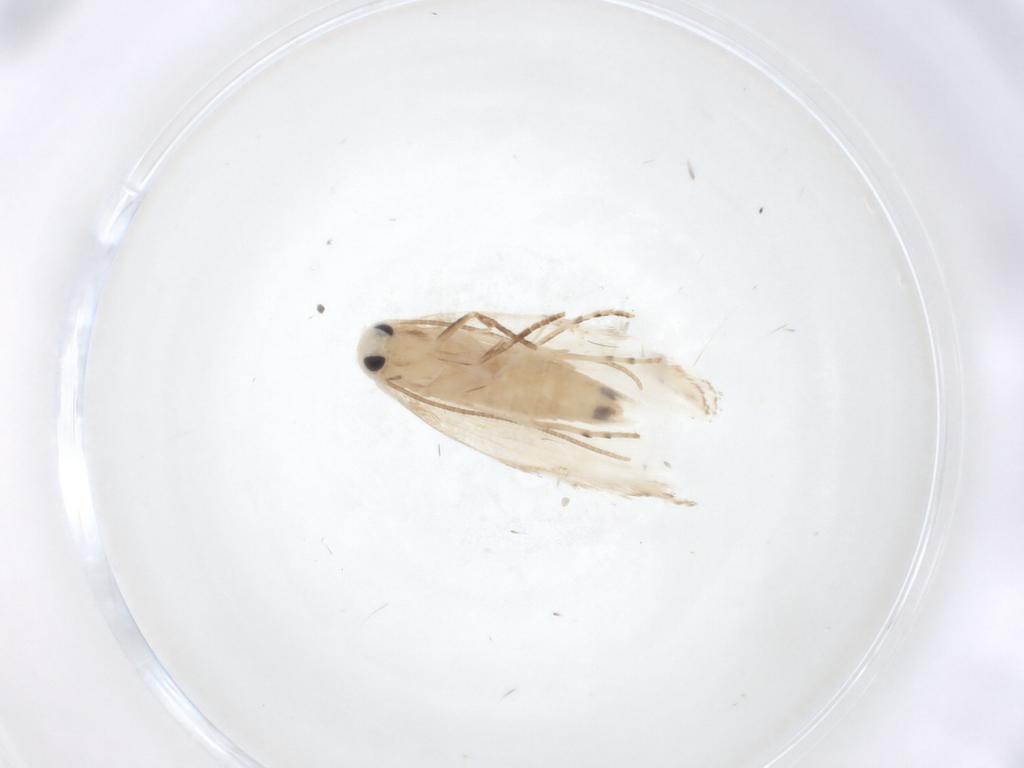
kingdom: Animalia
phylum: Arthropoda
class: Insecta
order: Lepidoptera
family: Lyonetiidae
